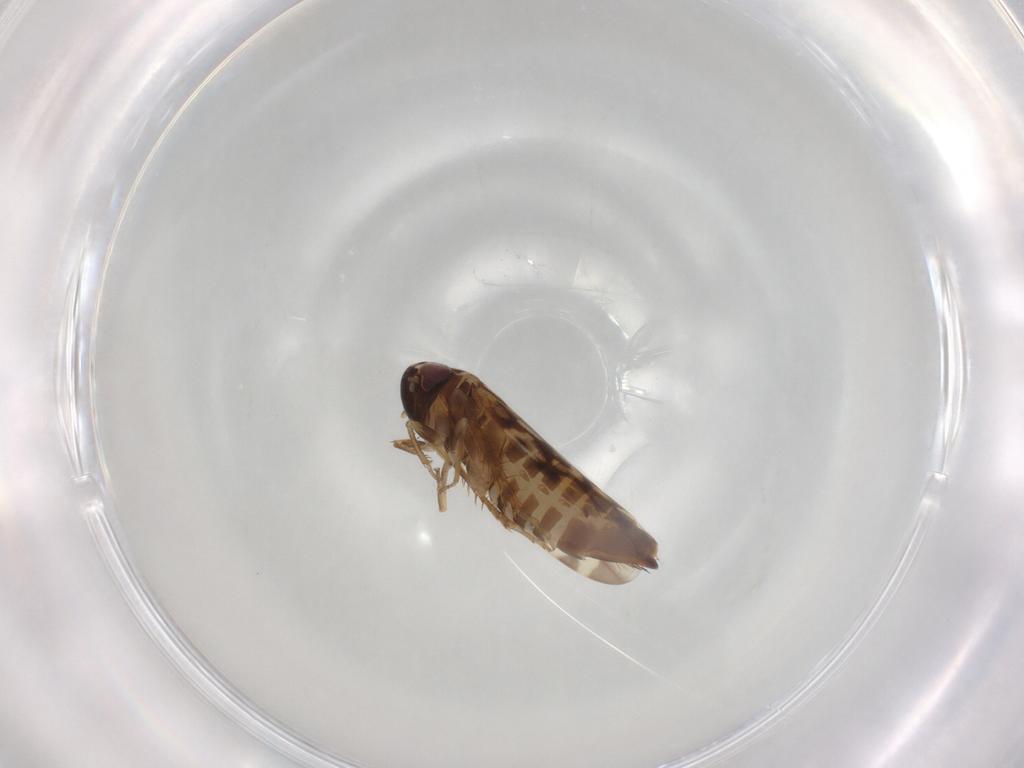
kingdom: Animalia
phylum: Arthropoda
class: Insecta
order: Hemiptera
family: Cicadellidae
